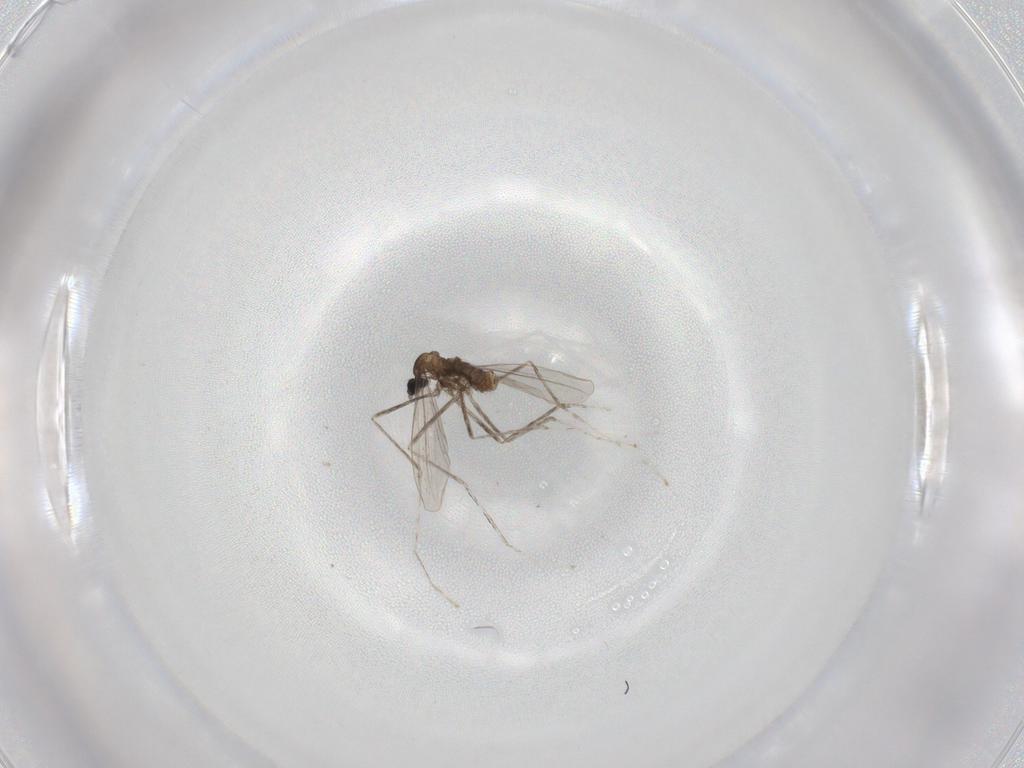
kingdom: Animalia
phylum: Arthropoda
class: Insecta
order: Diptera
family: Cecidomyiidae
